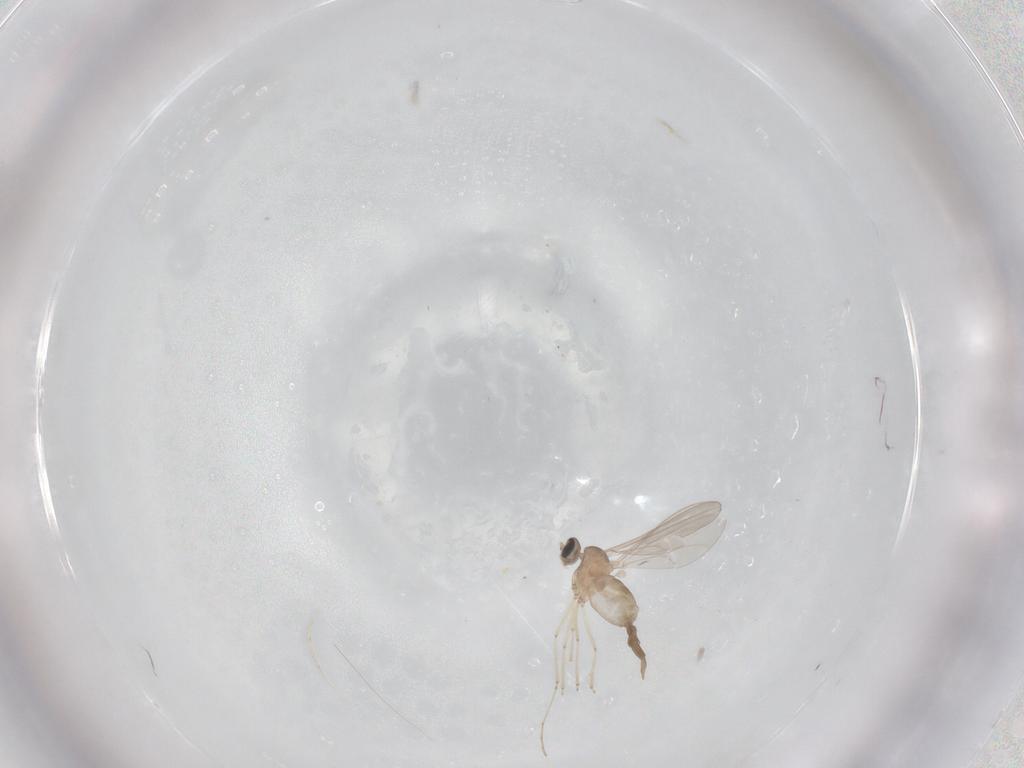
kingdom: Animalia
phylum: Arthropoda
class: Insecta
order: Diptera
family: Cecidomyiidae
